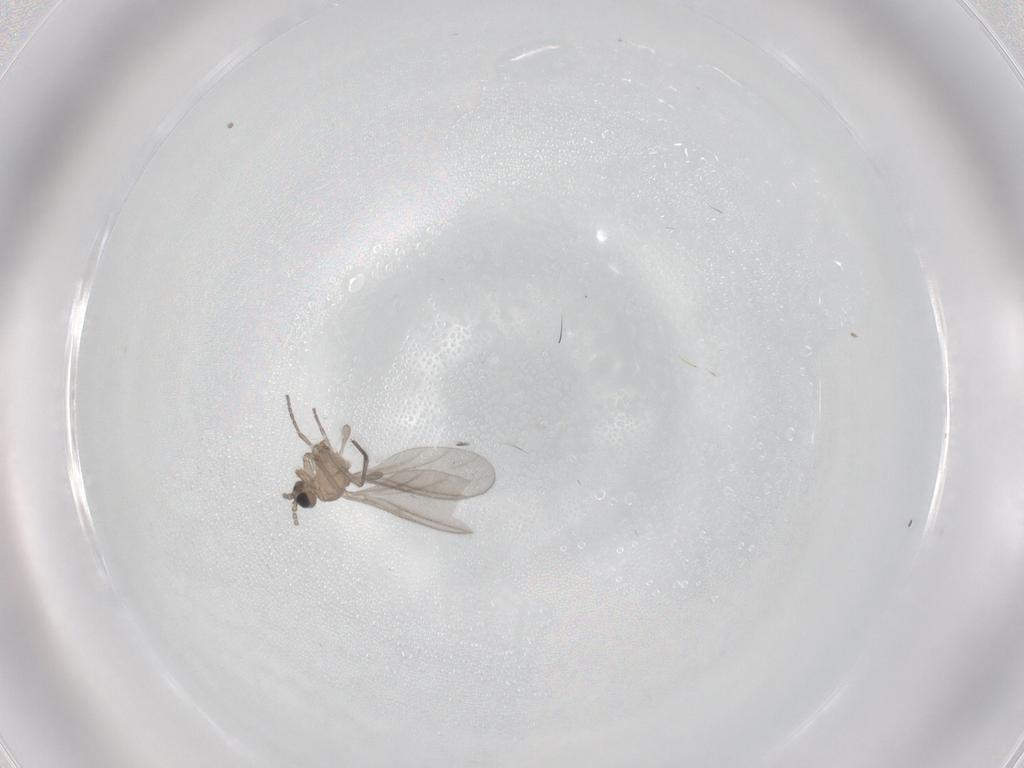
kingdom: Animalia
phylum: Arthropoda
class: Insecta
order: Diptera
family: Sciaridae
